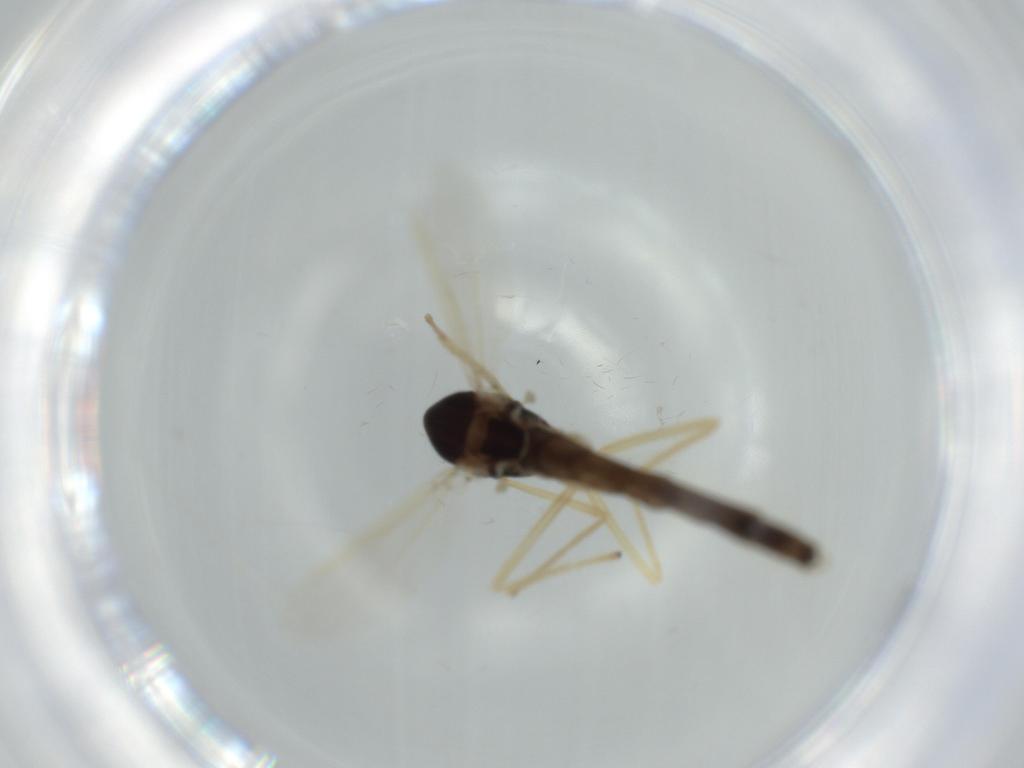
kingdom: Animalia
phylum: Arthropoda
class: Insecta
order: Diptera
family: Chironomidae
